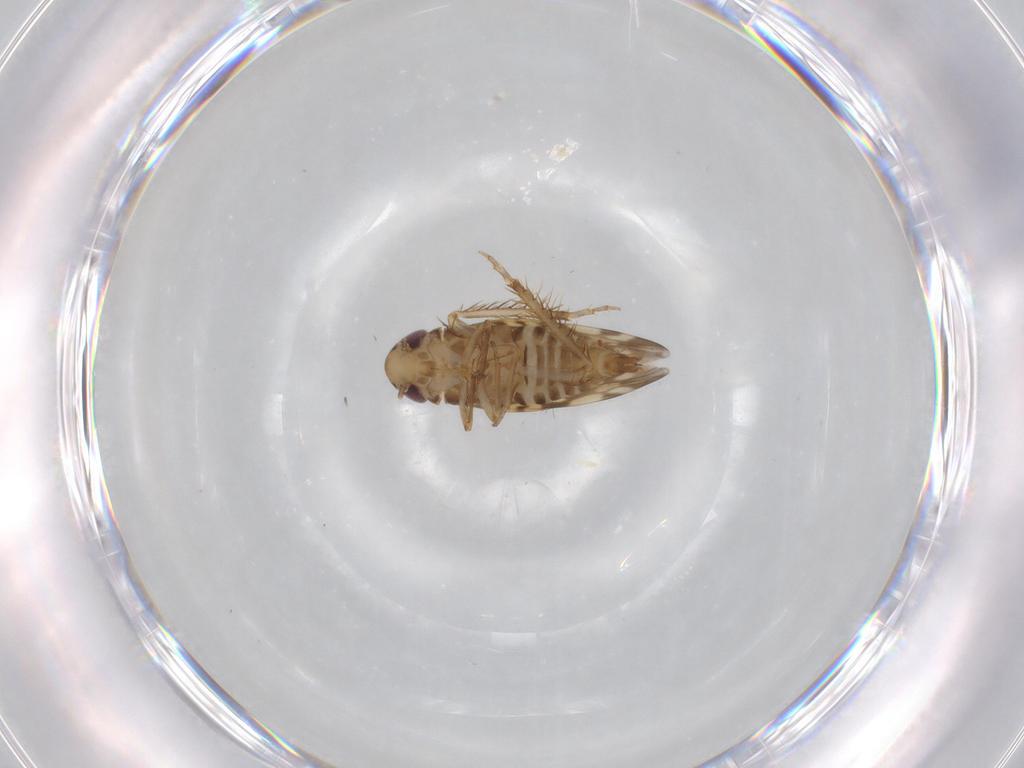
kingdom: Animalia
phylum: Arthropoda
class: Insecta
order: Hemiptera
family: Cicadellidae
